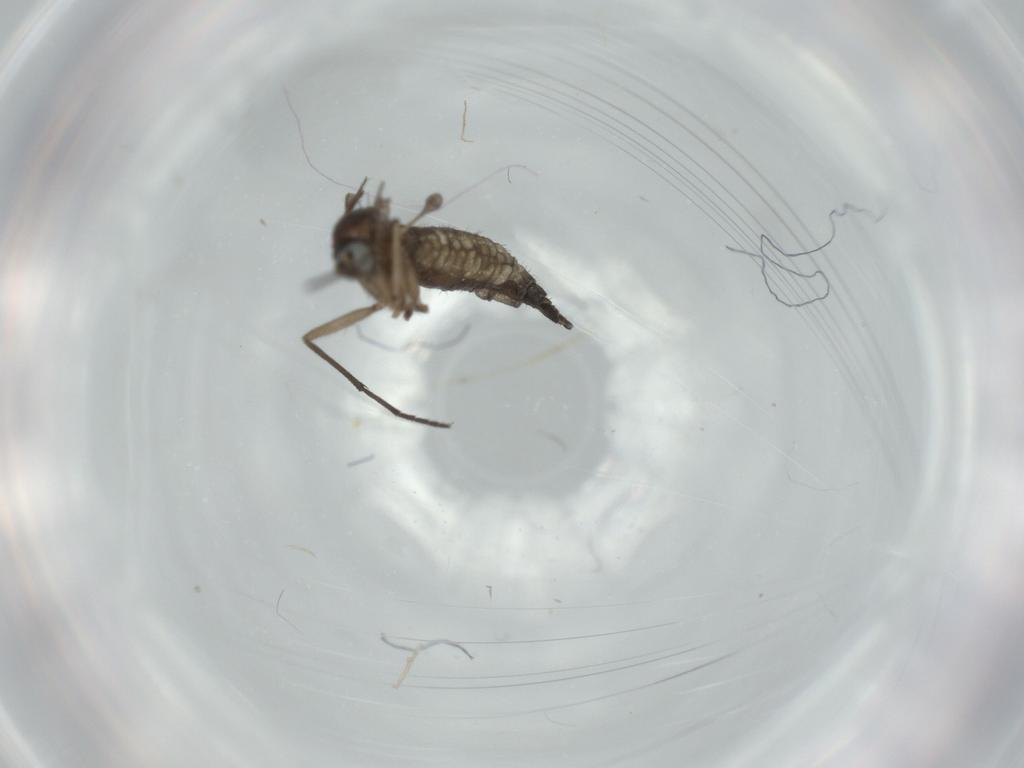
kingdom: Animalia
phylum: Arthropoda
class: Insecta
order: Diptera
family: Sciaridae
